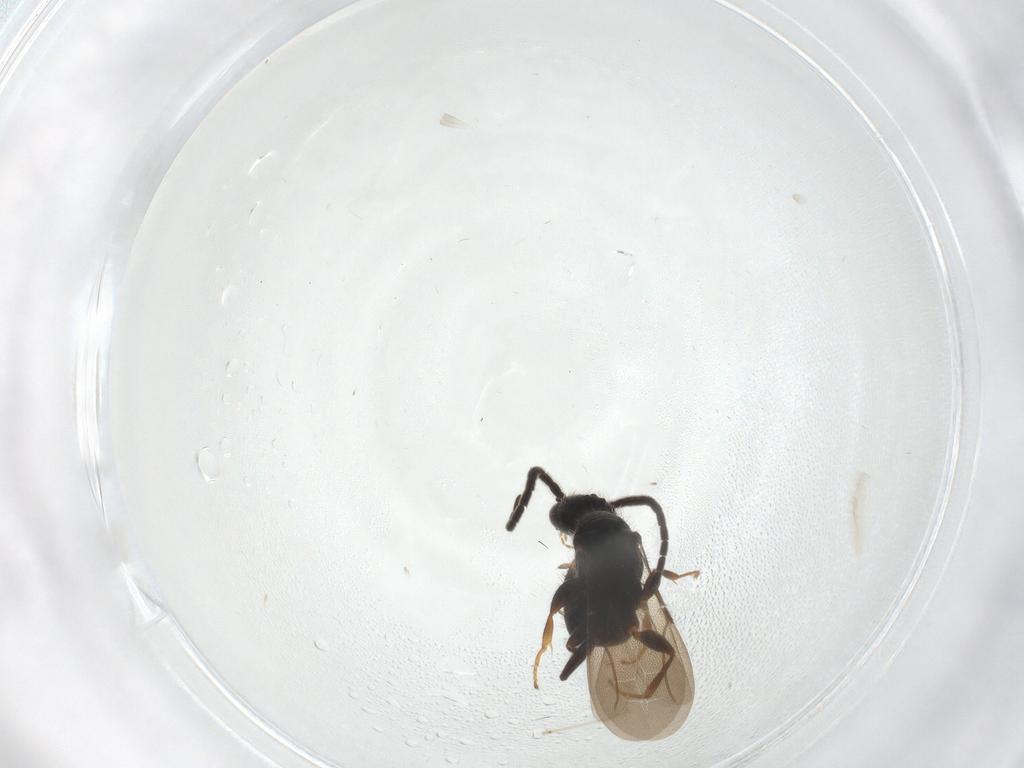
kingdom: Animalia
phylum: Arthropoda
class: Insecta
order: Hymenoptera
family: Bethylidae
